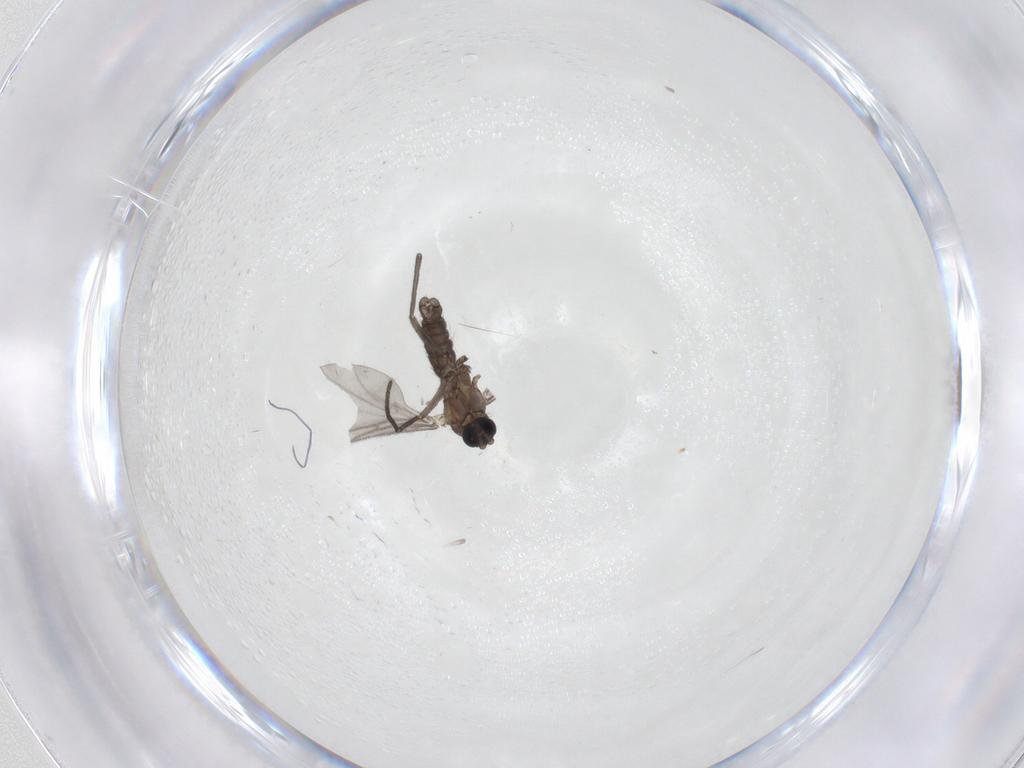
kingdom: Animalia
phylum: Arthropoda
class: Insecta
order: Diptera
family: Sciaridae
